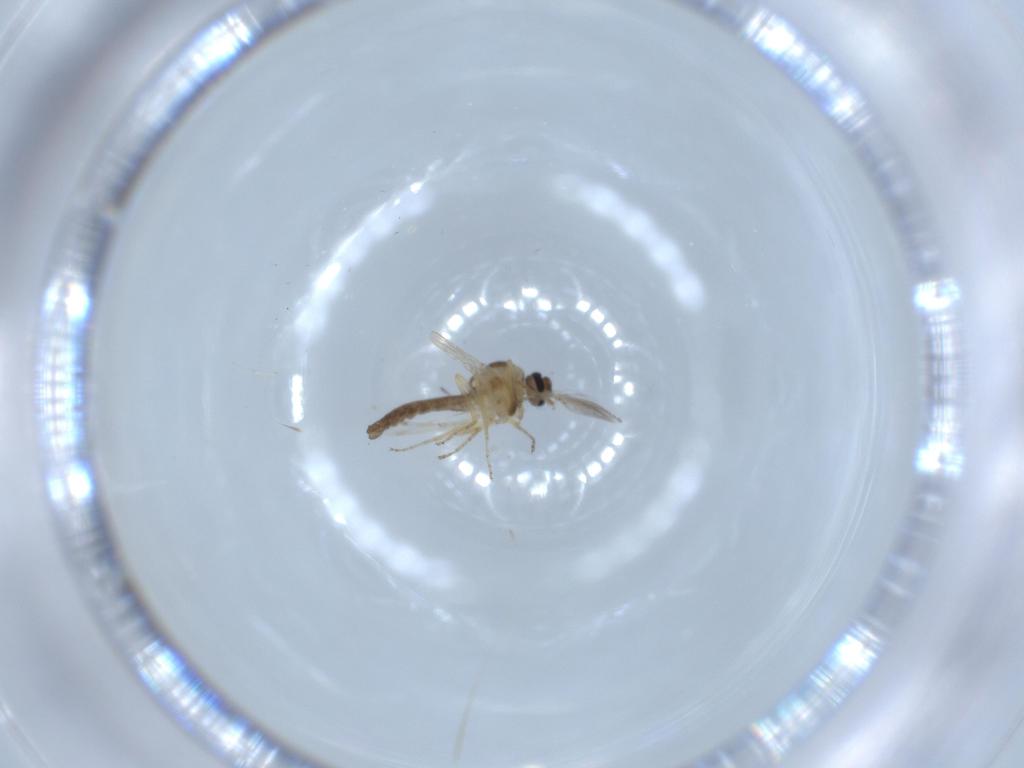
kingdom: Animalia
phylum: Arthropoda
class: Insecta
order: Diptera
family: Ceratopogonidae
